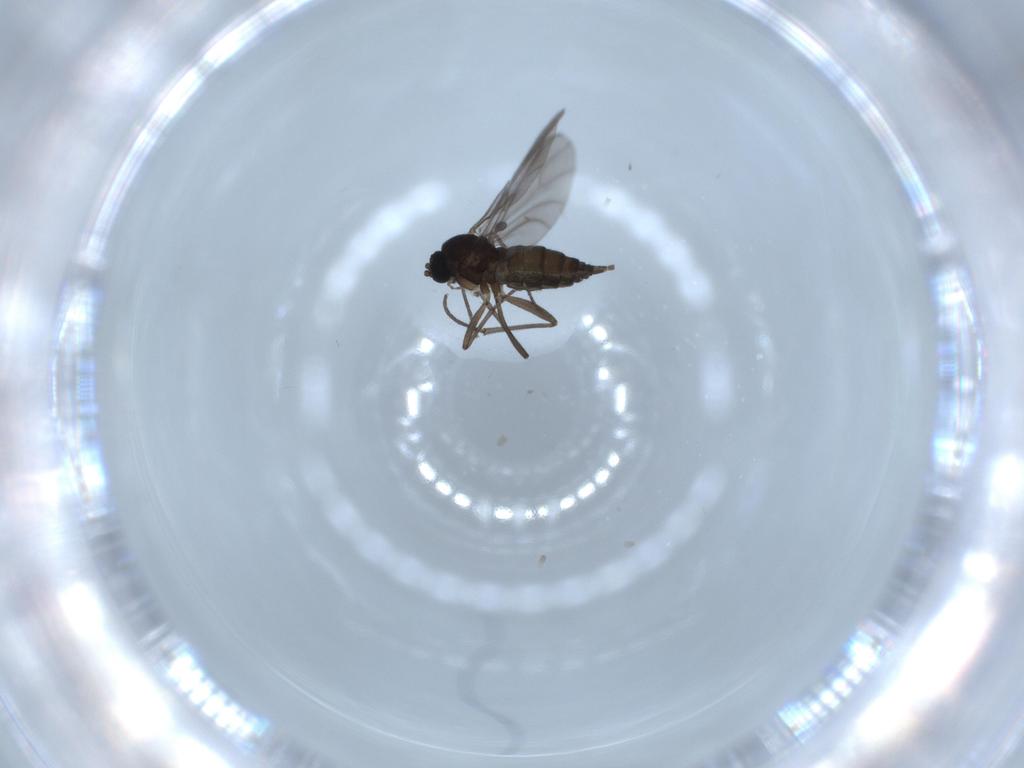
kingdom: Animalia
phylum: Arthropoda
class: Insecta
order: Diptera
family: Sciaridae
